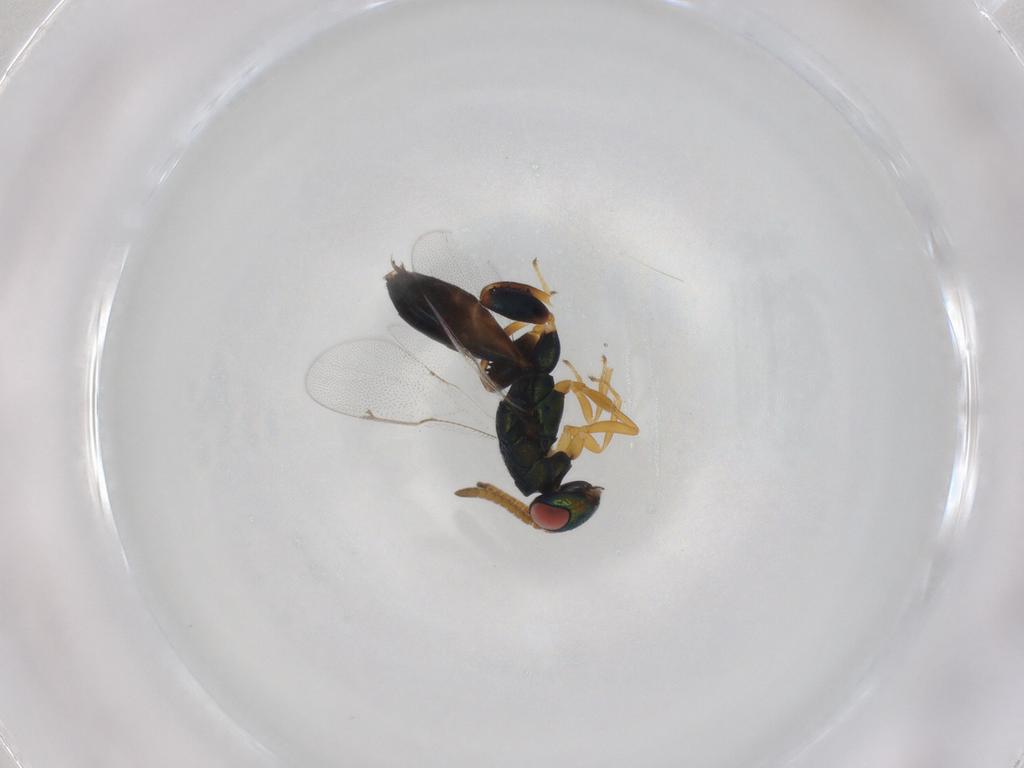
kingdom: Animalia
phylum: Arthropoda
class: Insecta
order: Hymenoptera
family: Torymidae
